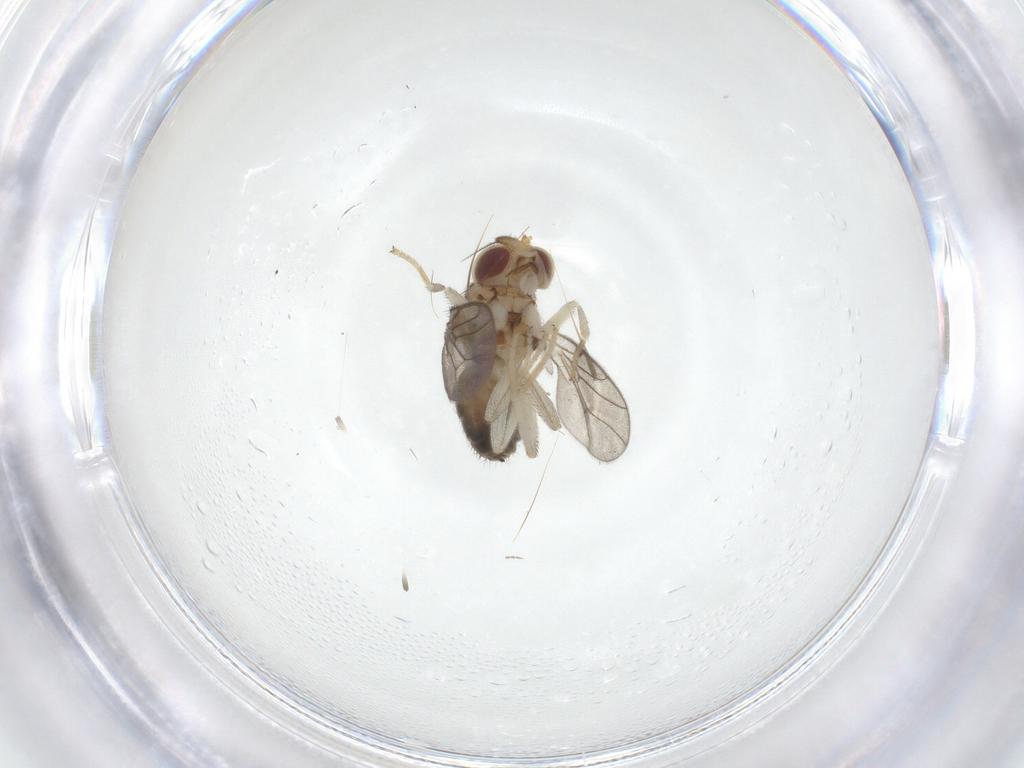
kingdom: Animalia
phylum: Arthropoda
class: Insecta
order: Diptera
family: Chloropidae
